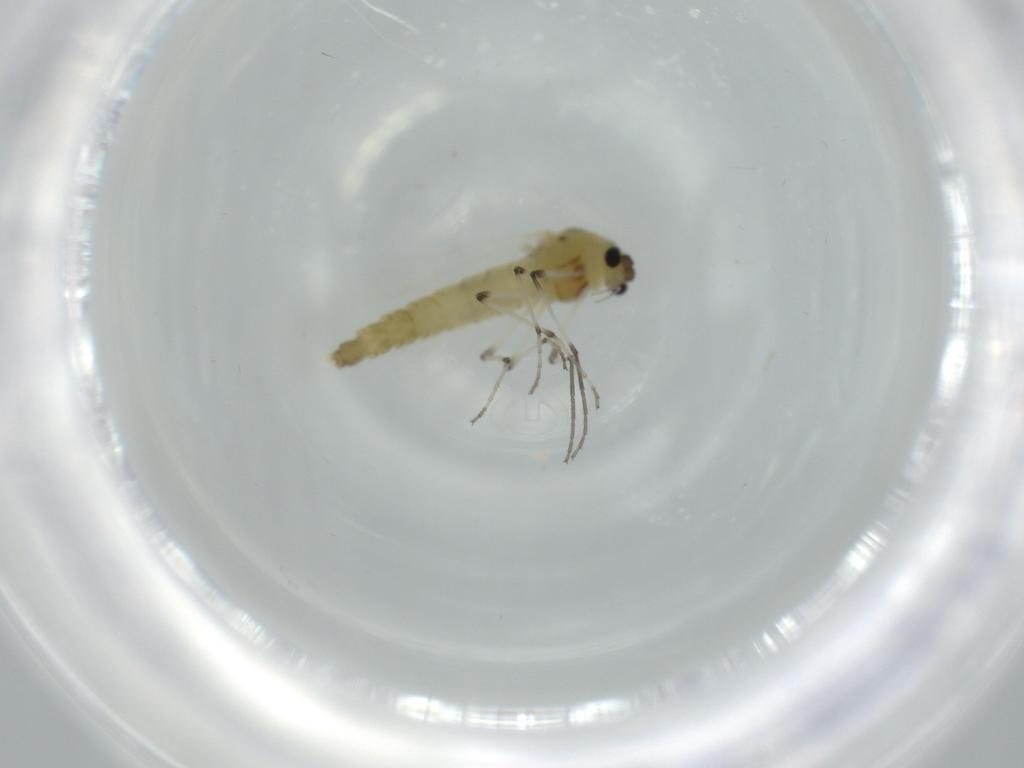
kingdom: Animalia
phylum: Arthropoda
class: Insecta
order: Diptera
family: Chironomidae
